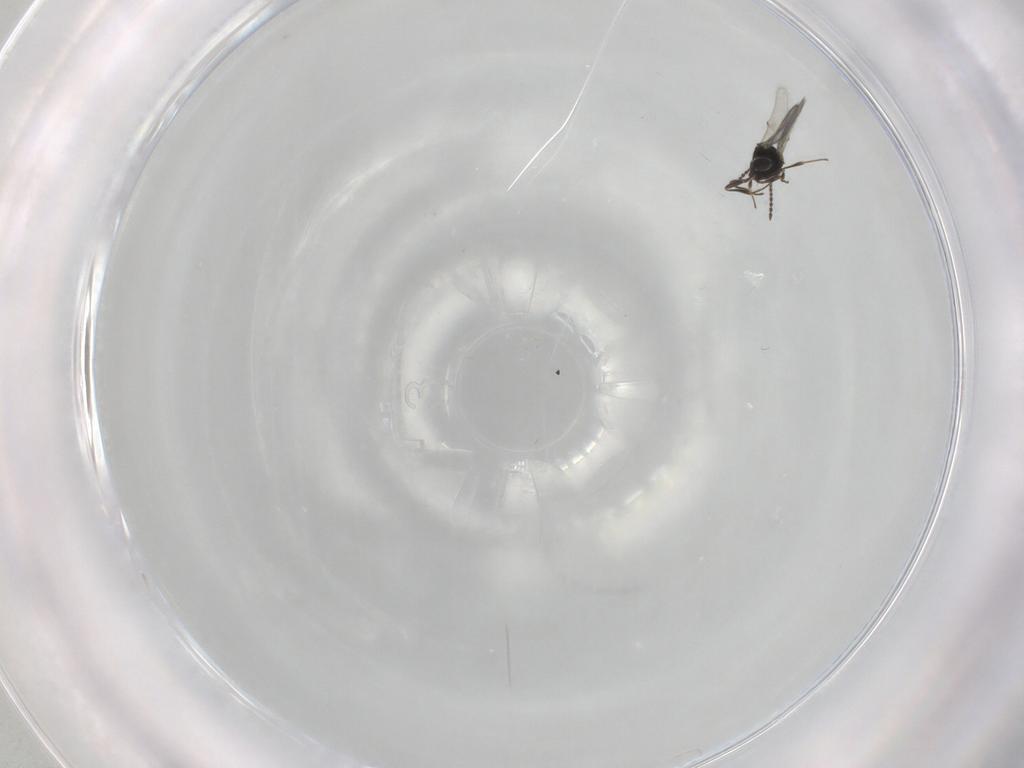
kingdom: Animalia
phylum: Arthropoda
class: Insecta
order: Hymenoptera
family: Scelionidae
